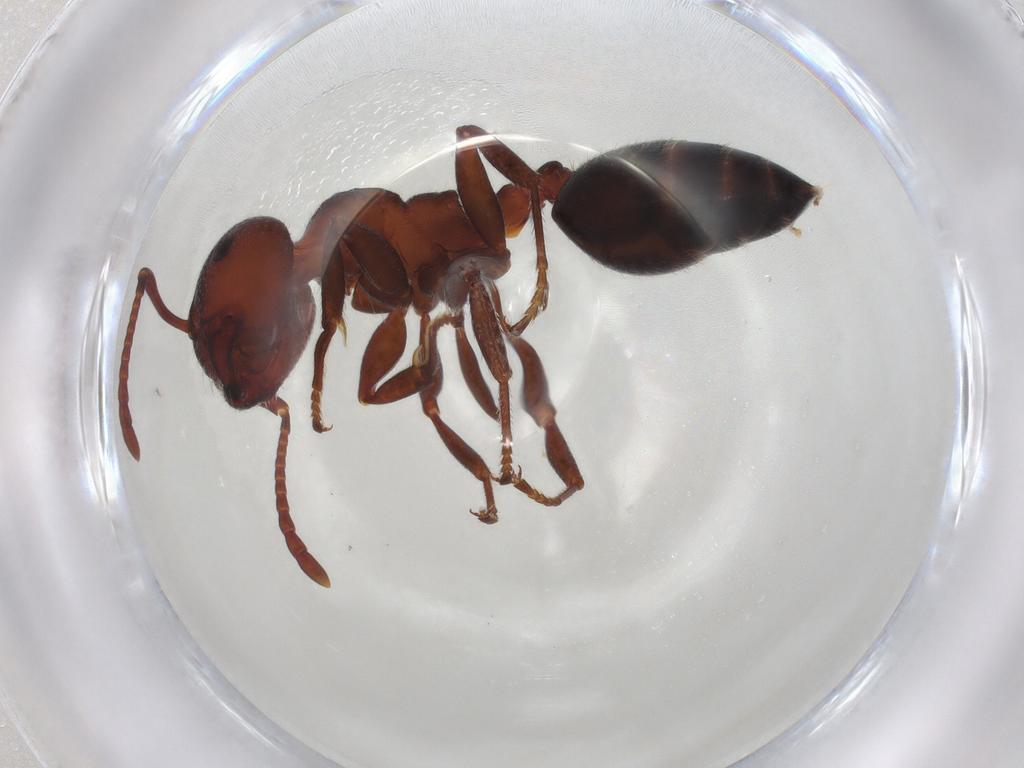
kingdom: Animalia
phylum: Arthropoda
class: Insecta
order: Hymenoptera
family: Formicidae
